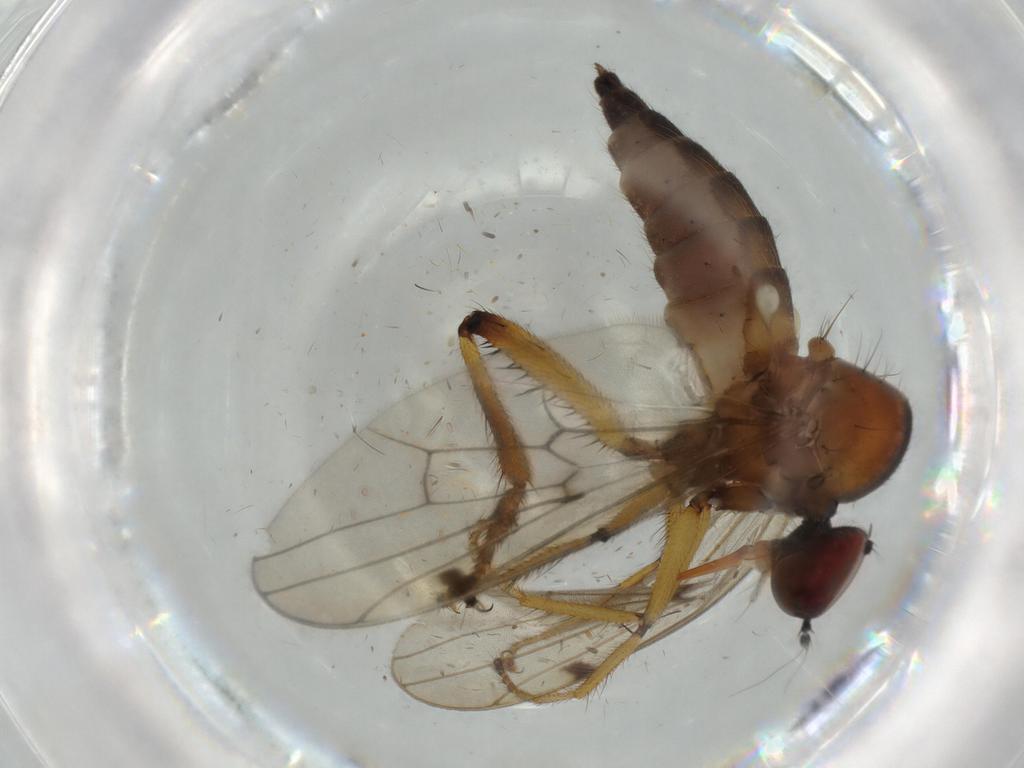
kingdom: Animalia
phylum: Arthropoda
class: Insecta
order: Diptera
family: Hybotidae
